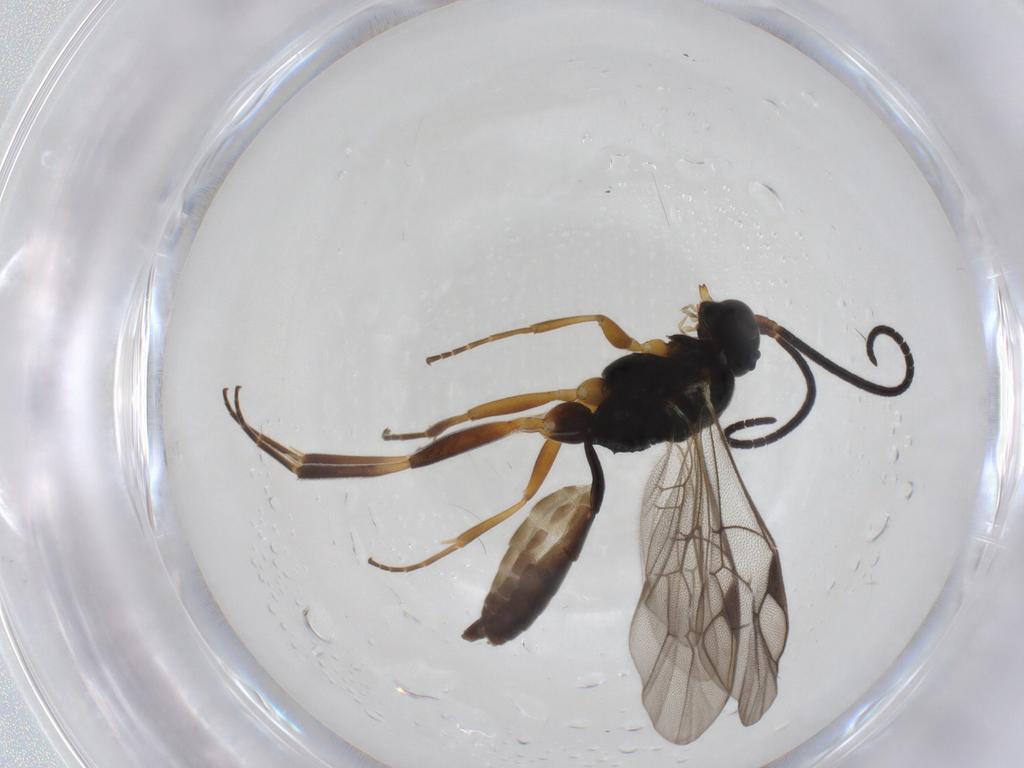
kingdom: Animalia
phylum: Arthropoda
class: Insecta
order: Hymenoptera
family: Ichneumonidae
